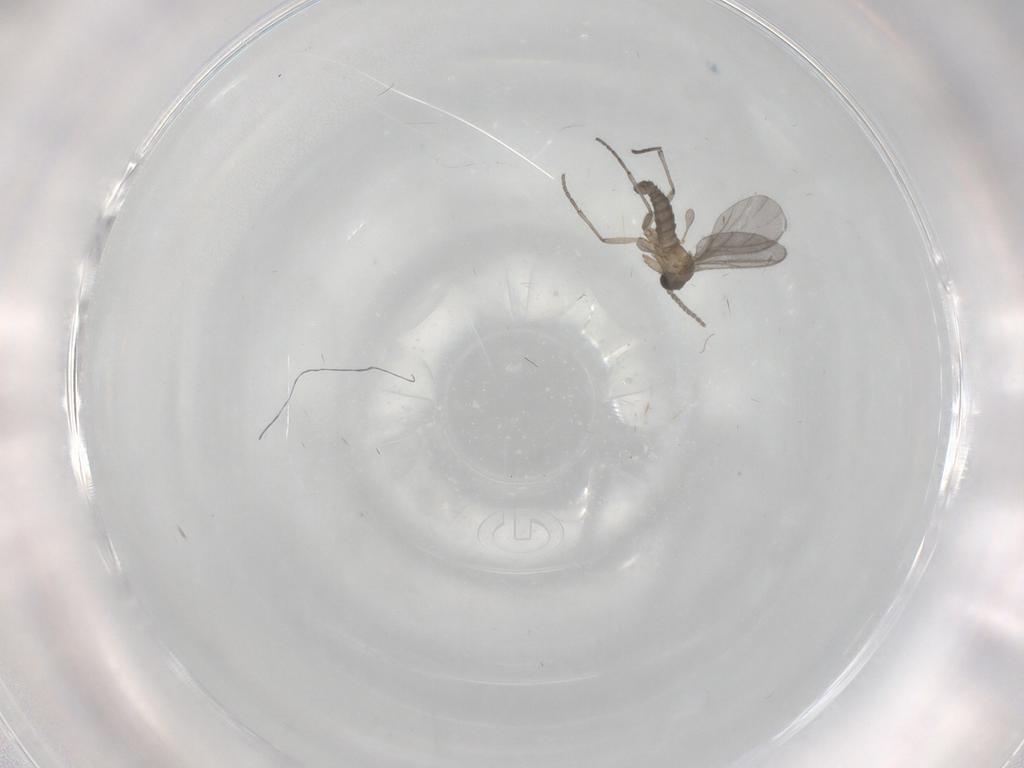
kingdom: Animalia
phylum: Arthropoda
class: Insecta
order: Diptera
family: Sciaridae
